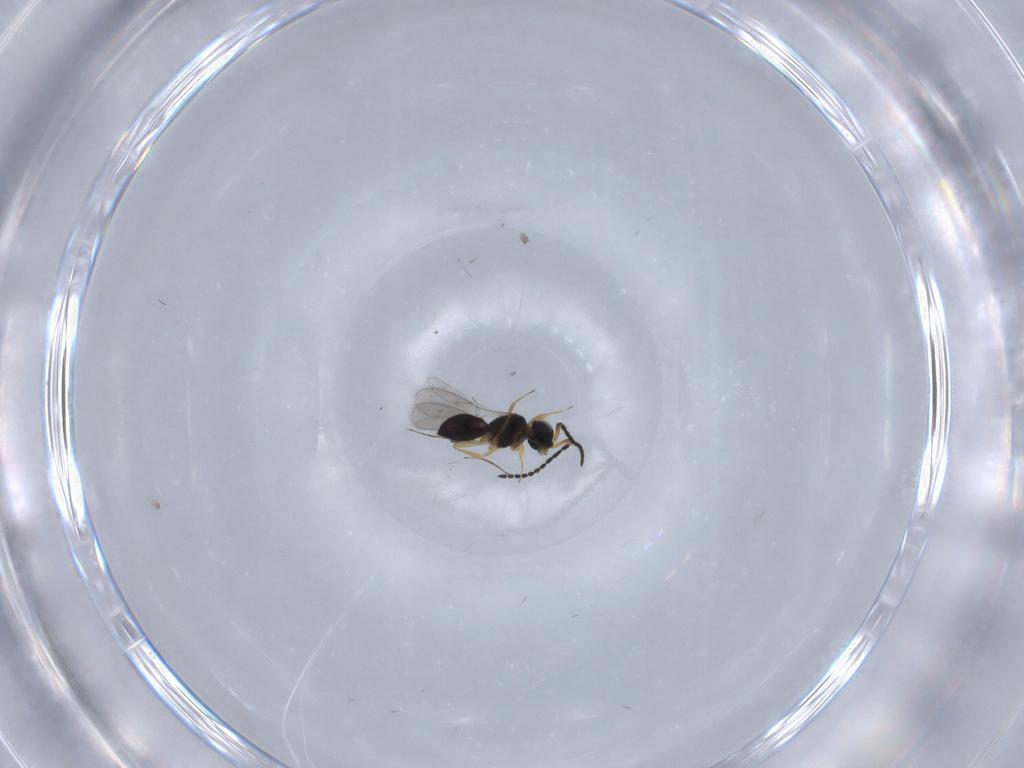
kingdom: Animalia
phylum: Arthropoda
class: Insecta
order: Hymenoptera
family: Scelionidae
